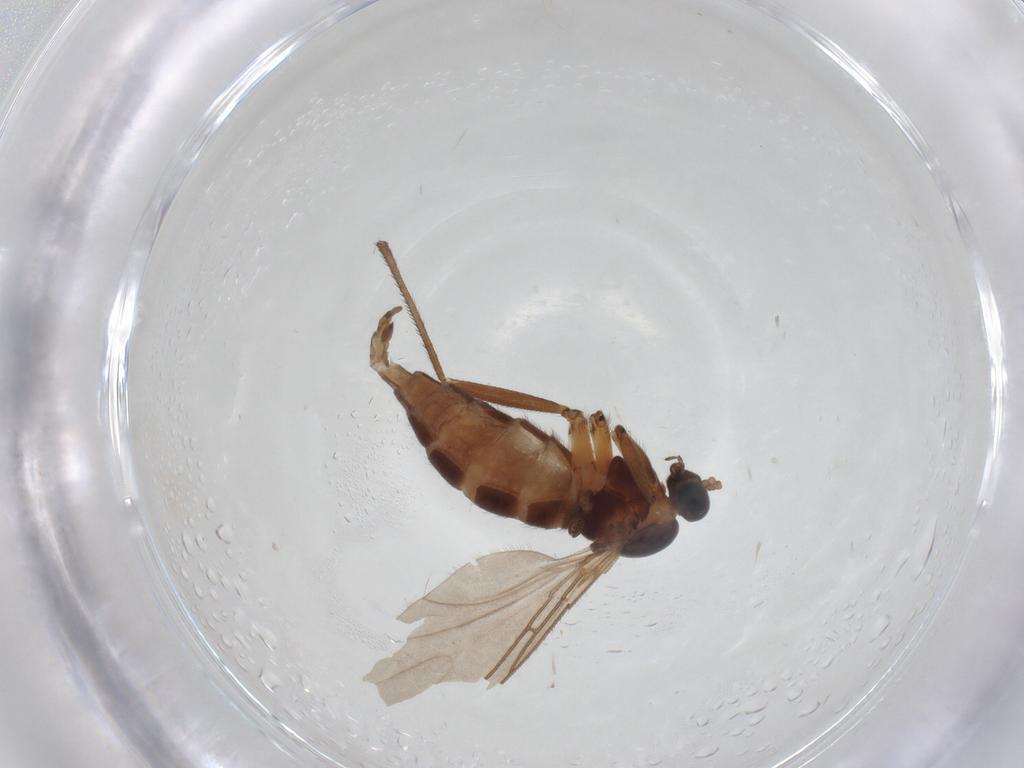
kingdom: Animalia
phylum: Arthropoda
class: Insecta
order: Diptera
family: Sciaridae
